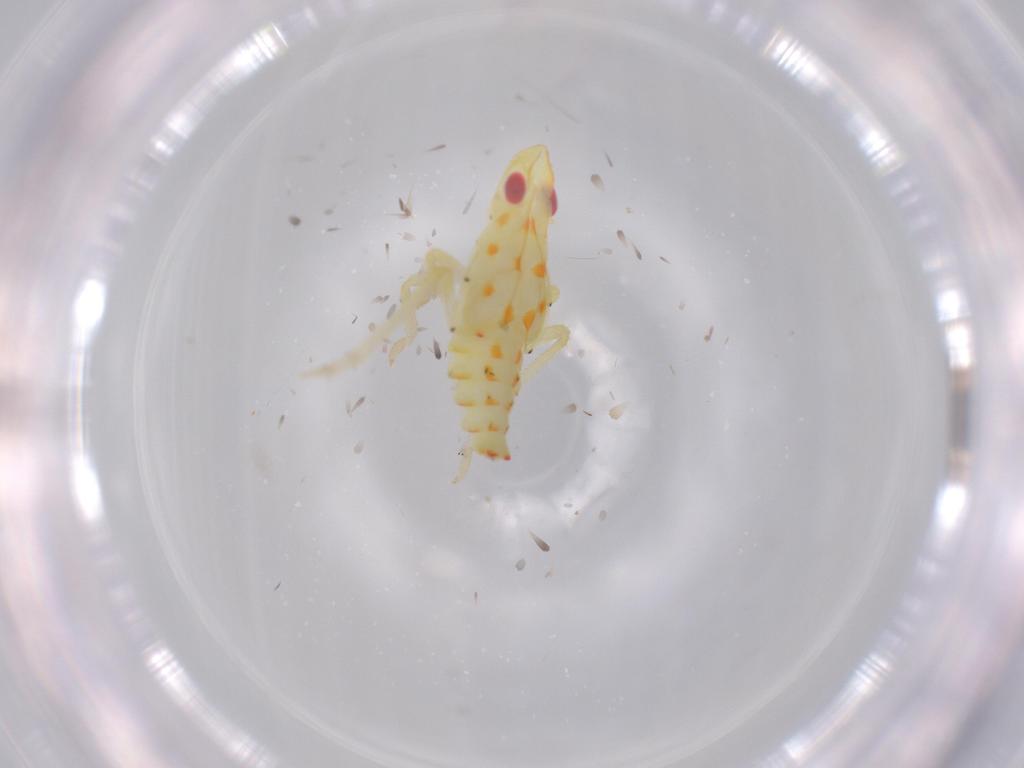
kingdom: Animalia
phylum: Arthropoda
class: Insecta
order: Hemiptera
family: Tropiduchidae
